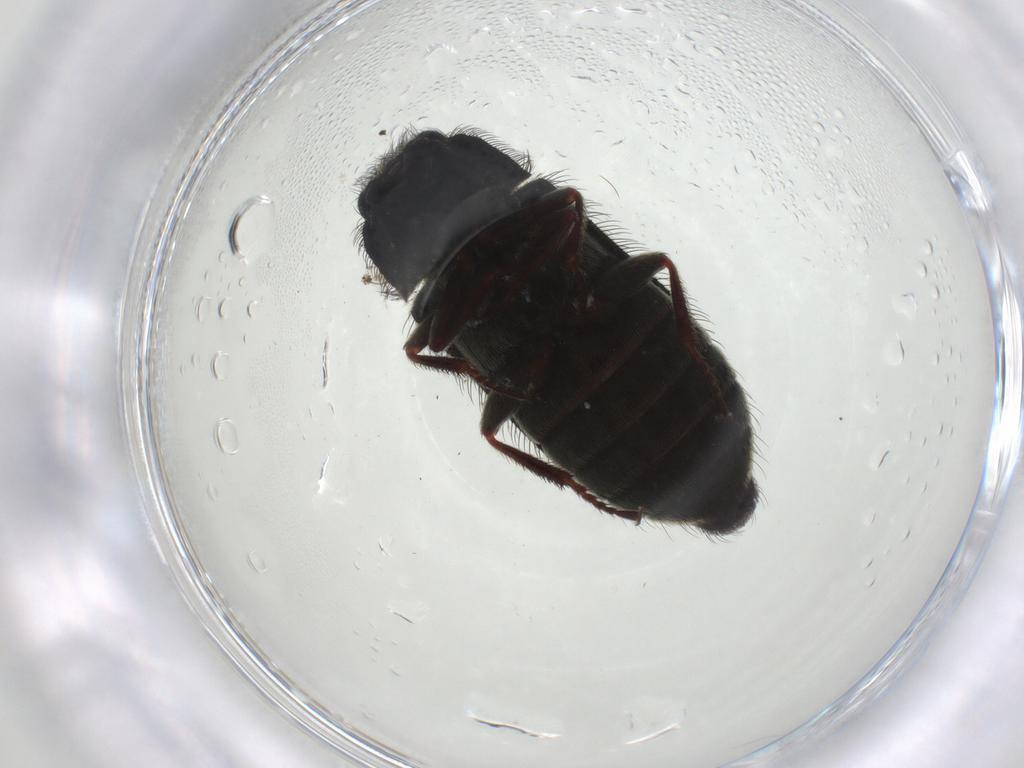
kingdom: Animalia
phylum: Arthropoda
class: Insecta
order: Coleoptera
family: Melyridae
